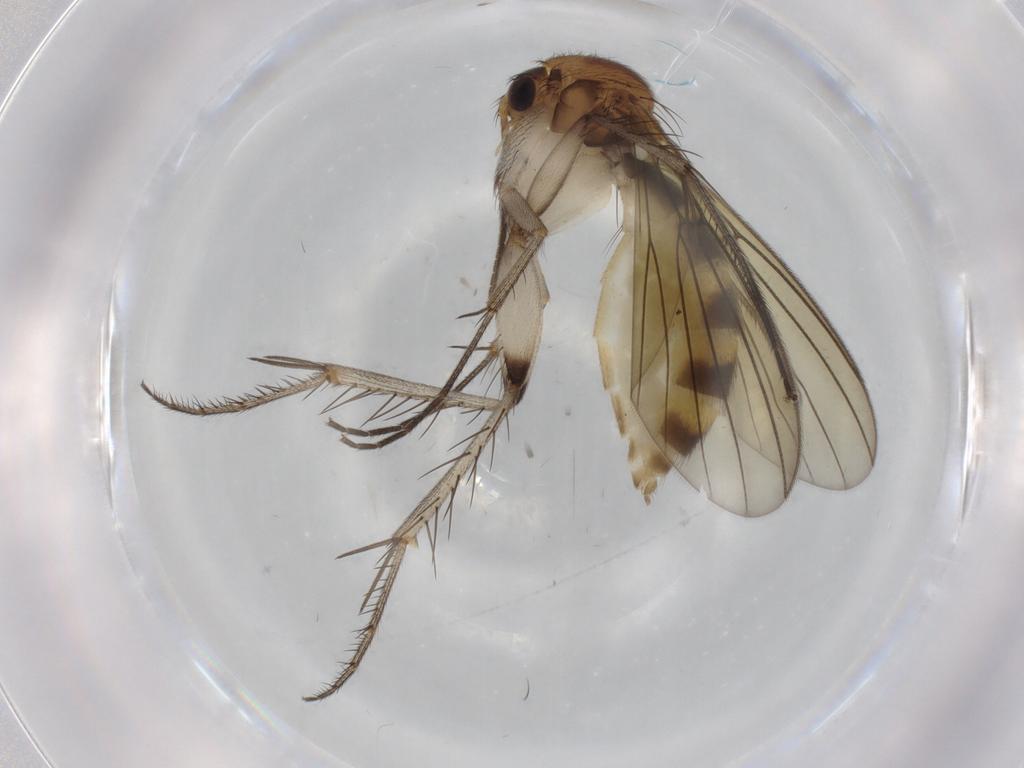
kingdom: Animalia
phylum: Arthropoda
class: Insecta
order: Diptera
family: Mycetophilidae
